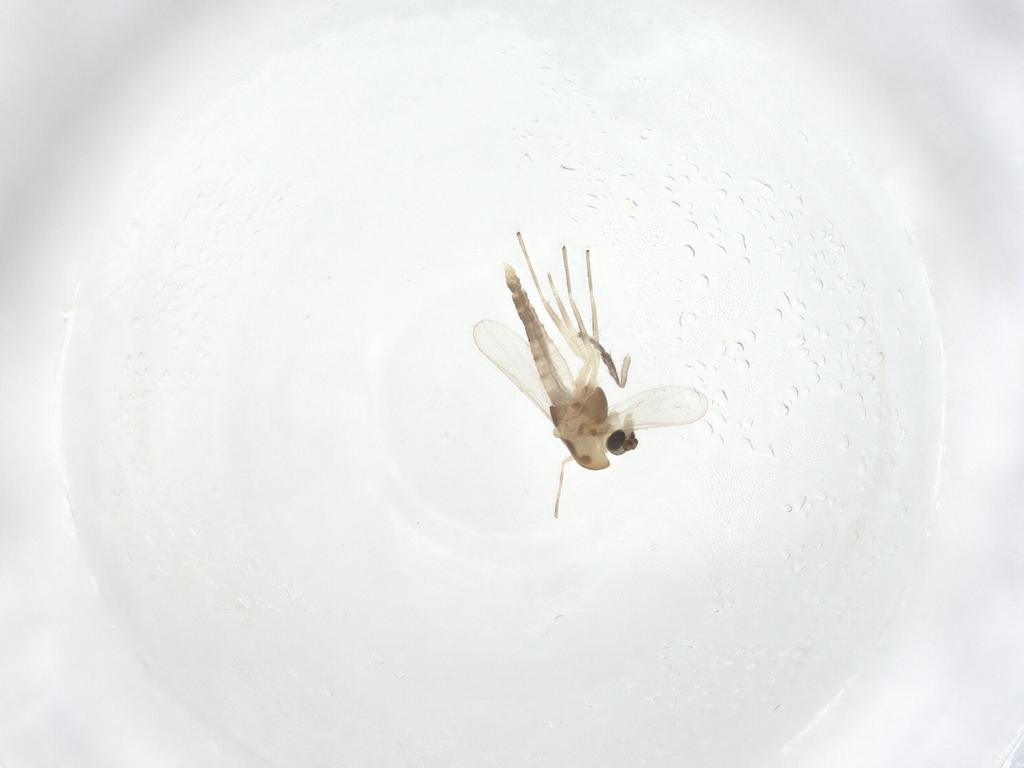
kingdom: Animalia
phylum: Arthropoda
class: Insecta
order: Diptera
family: Chironomidae
